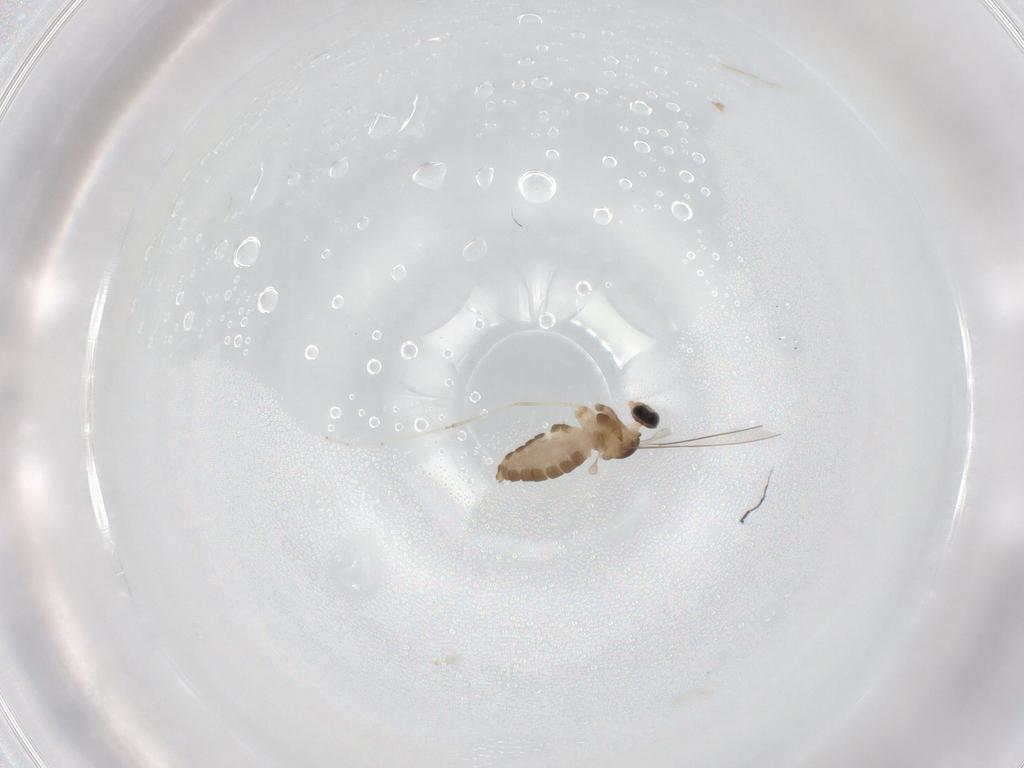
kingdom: Animalia
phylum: Arthropoda
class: Insecta
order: Diptera
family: Cecidomyiidae
